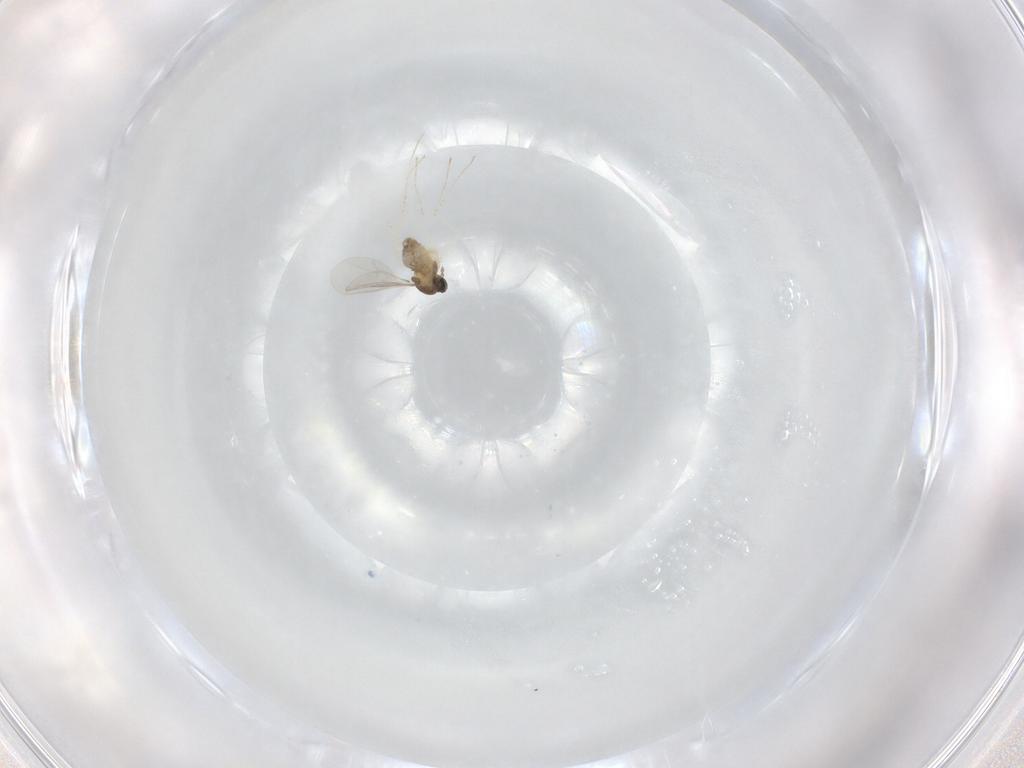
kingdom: Animalia
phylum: Arthropoda
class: Insecta
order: Diptera
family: Cecidomyiidae
